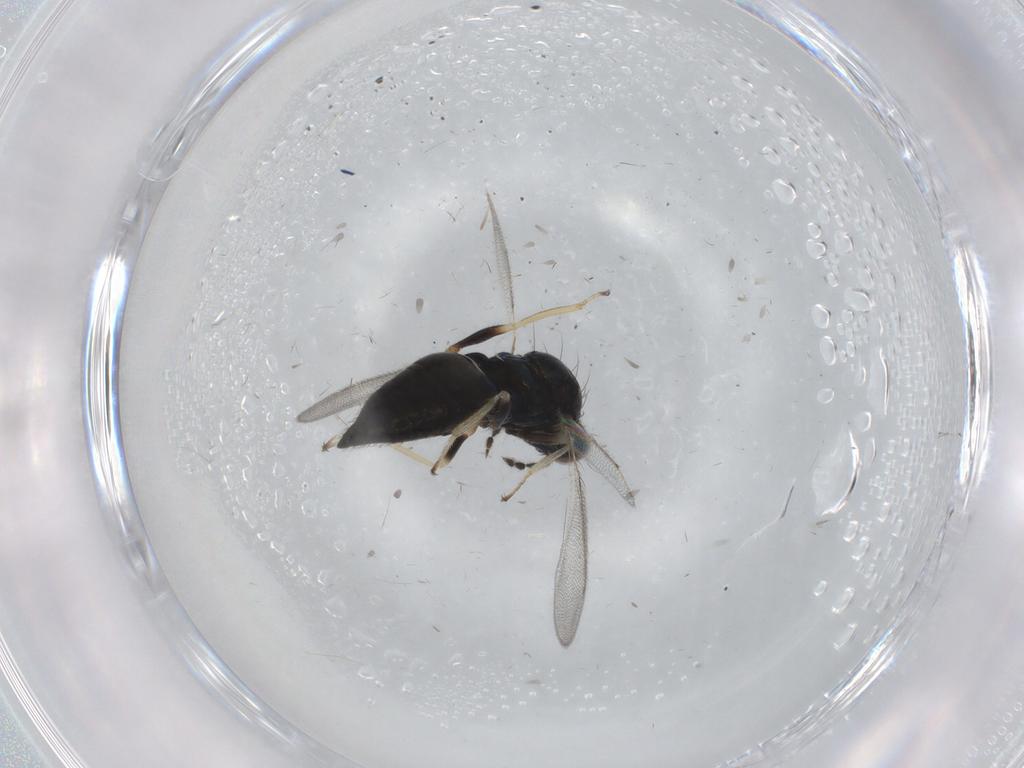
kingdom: Animalia
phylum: Arthropoda
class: Insecta
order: Hymenoptera
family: Eulophidae
